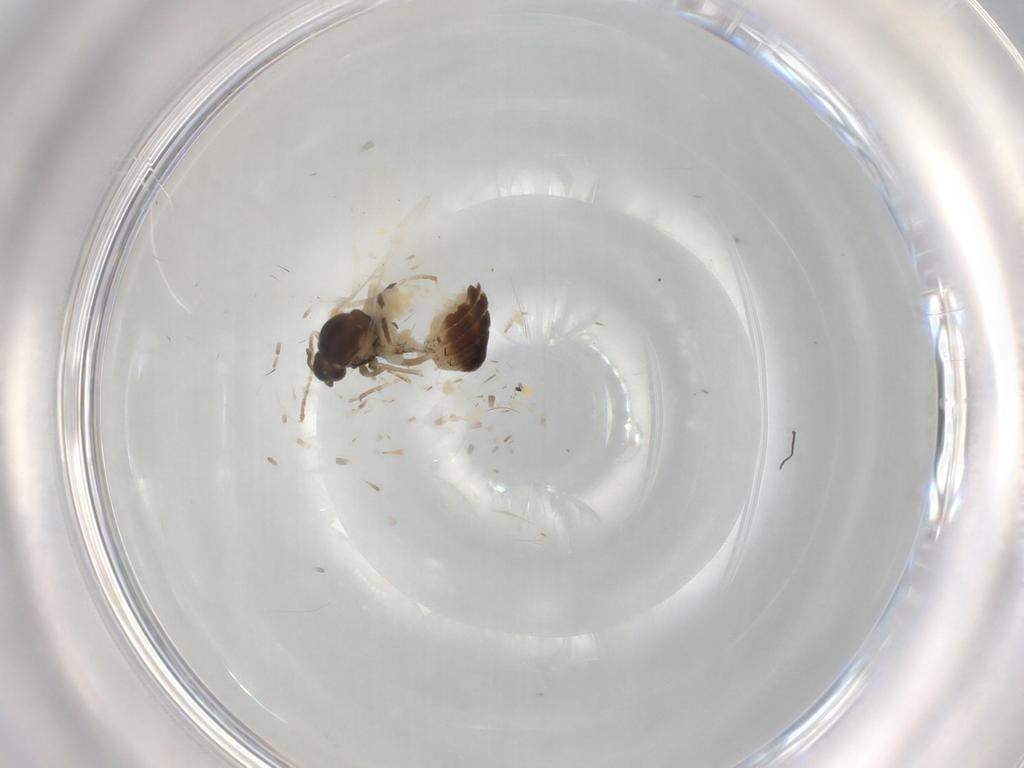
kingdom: Animalia
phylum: Arthropoda
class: Insecta
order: Diptera
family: Cecidomyiidae
